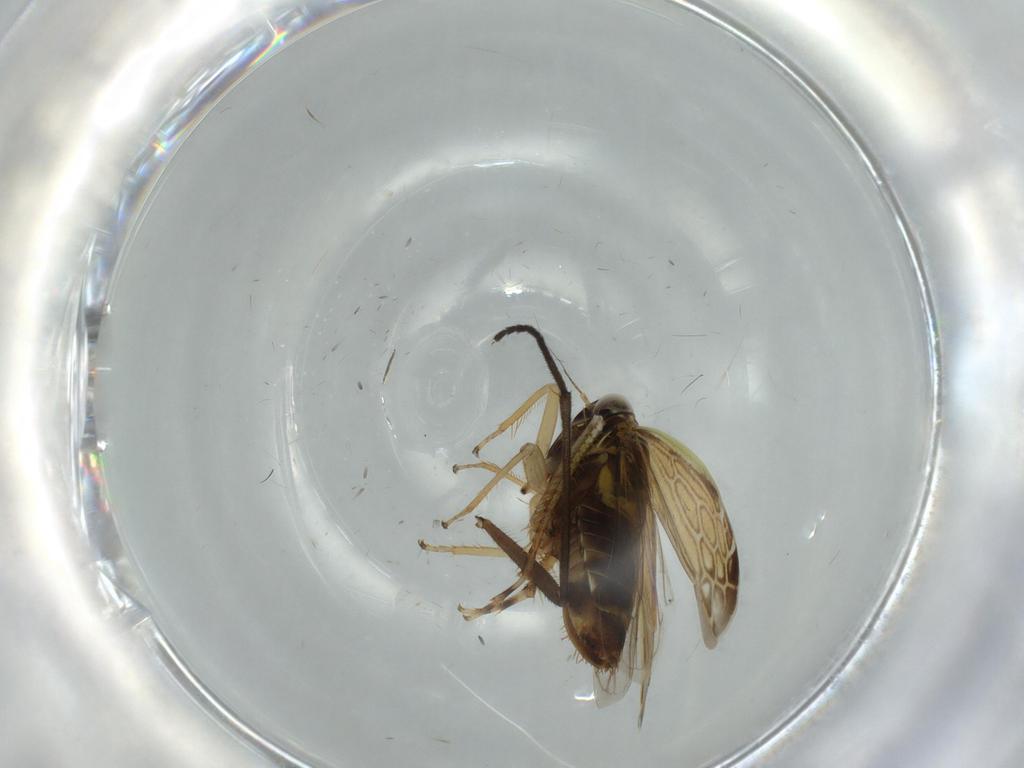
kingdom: Animalia
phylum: Arthropoda
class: Insecta
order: Hemiptera
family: Cicadellidae
